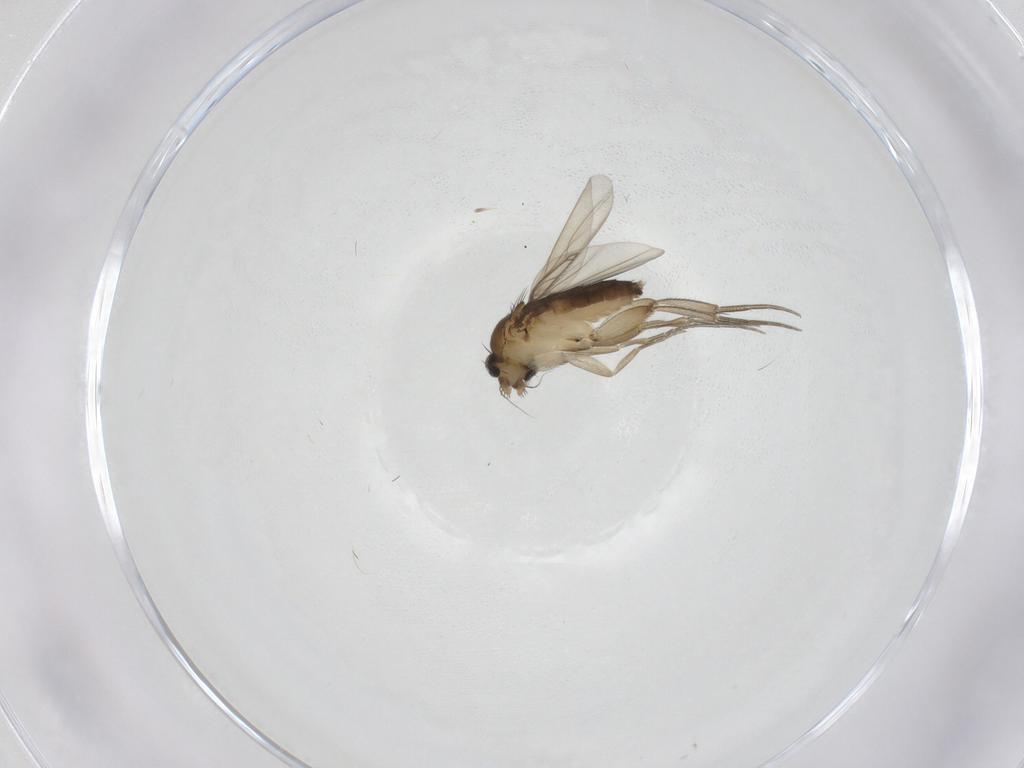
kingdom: Animalia
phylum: Arthropoda
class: Insecta
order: Diptera
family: Phoridae
